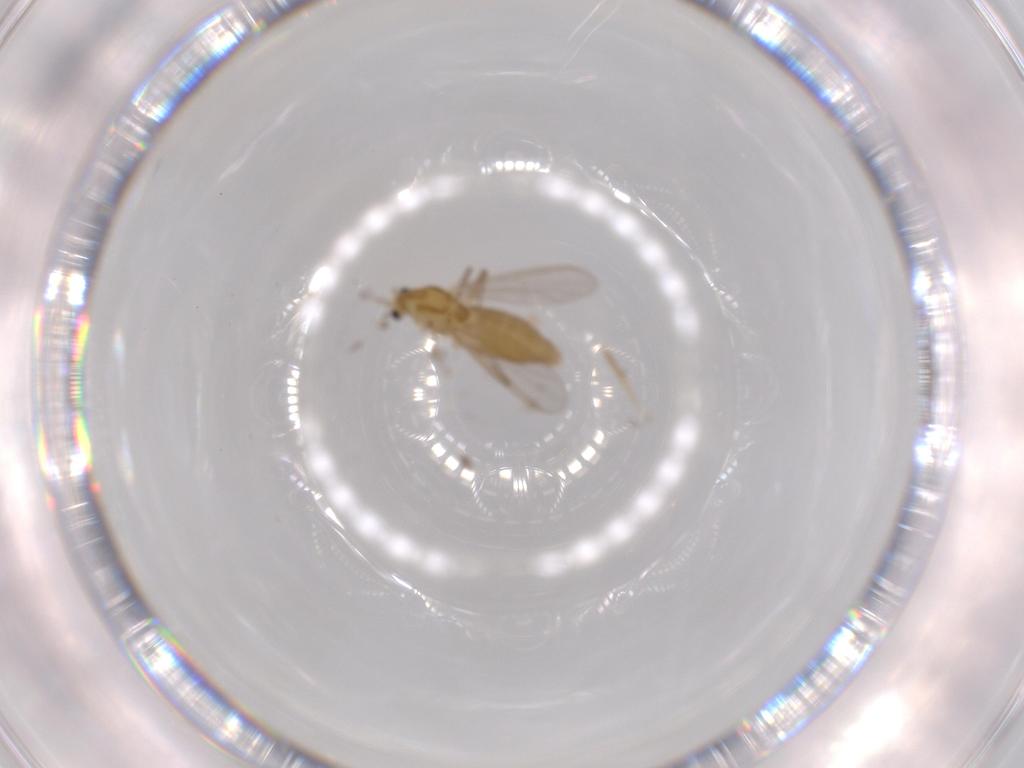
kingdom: Animalia
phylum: Arthropoda
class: Insecta
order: Diptera
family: Chironomidae
